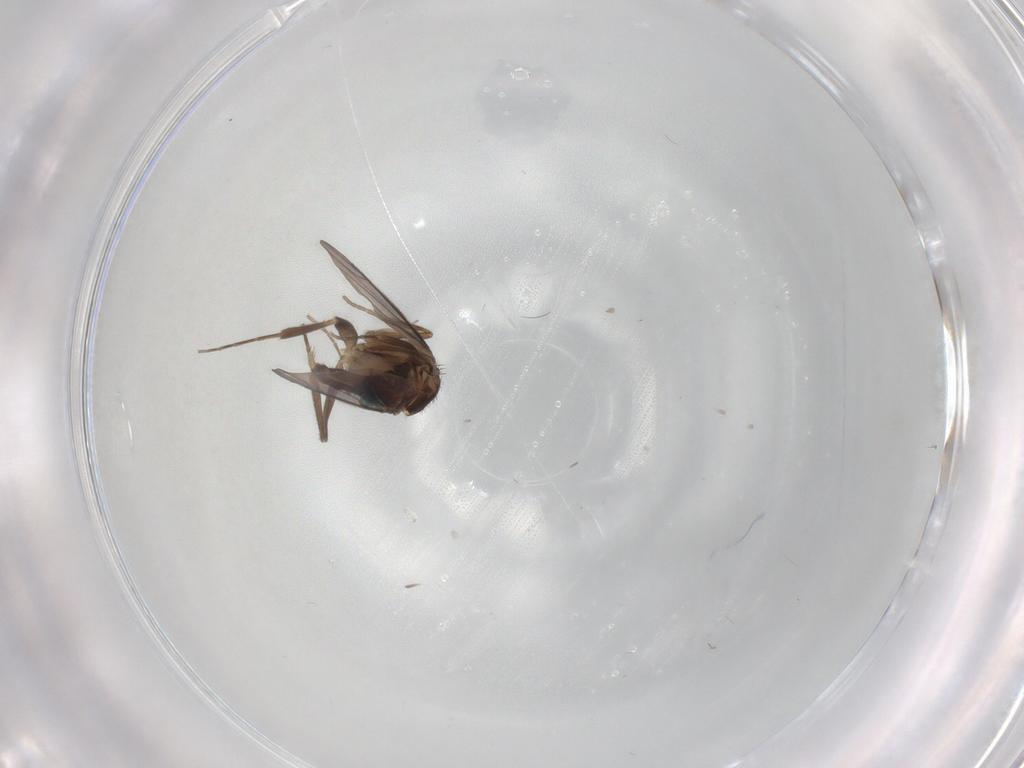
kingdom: Animalia
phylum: Arthropoda
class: Insecta
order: Diptera
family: Phoridae
